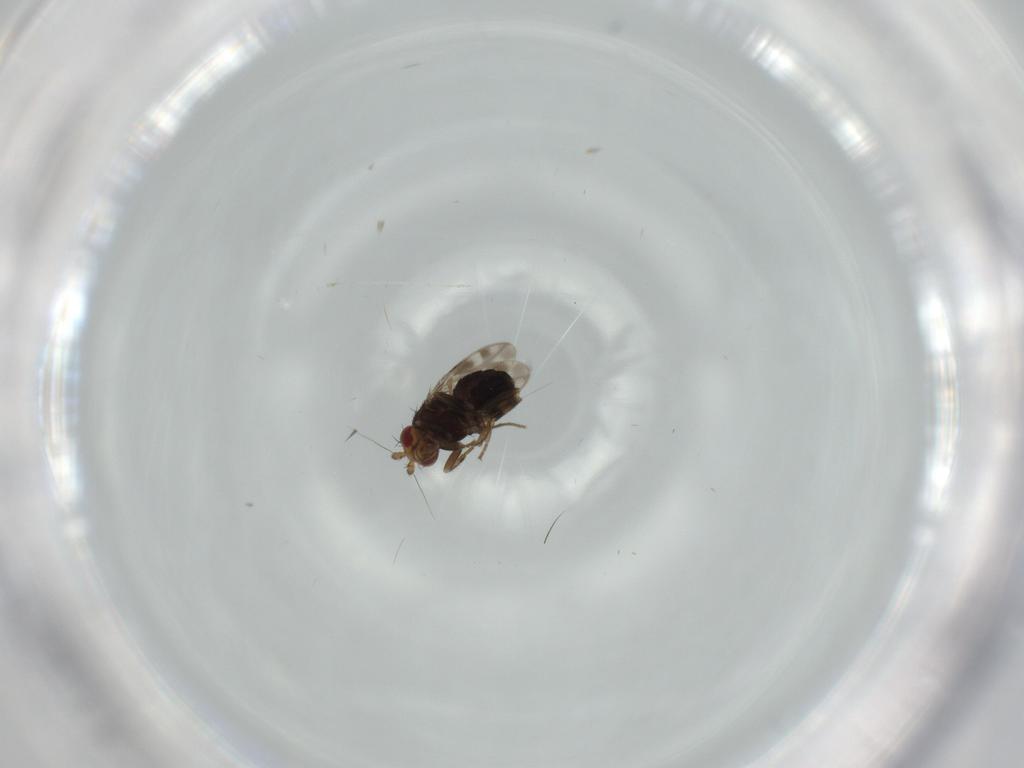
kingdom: Animalia
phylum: Arthropoda
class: Insecta
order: Diptera
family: Sphaeroceridae
